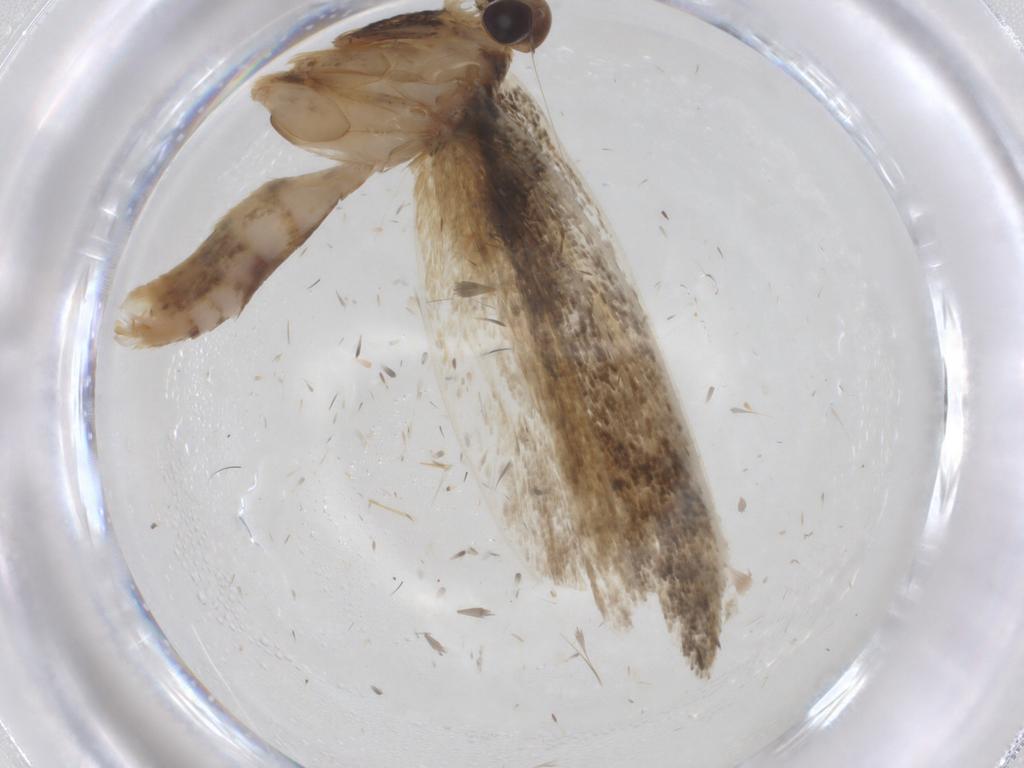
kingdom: Animalia
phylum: Arthropoda
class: Insecta
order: Lepidoptera
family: Gelechiidae
